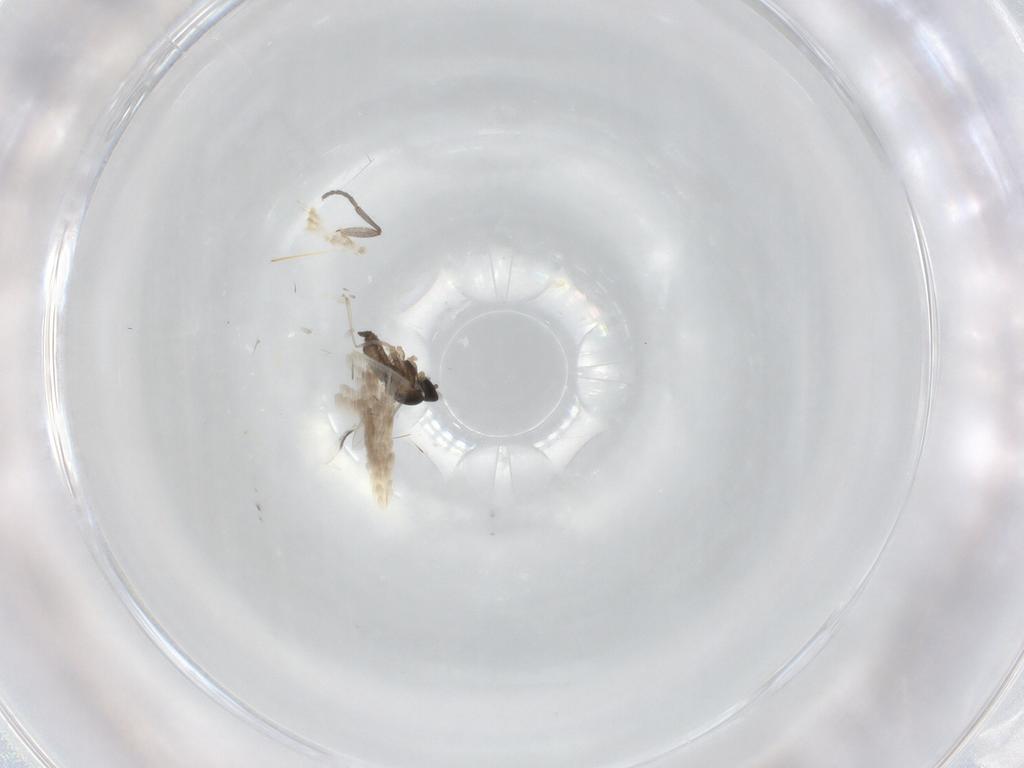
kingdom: Animalia
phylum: Arthropoda
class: Insecta
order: Diptera
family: Cecidomyiidae
